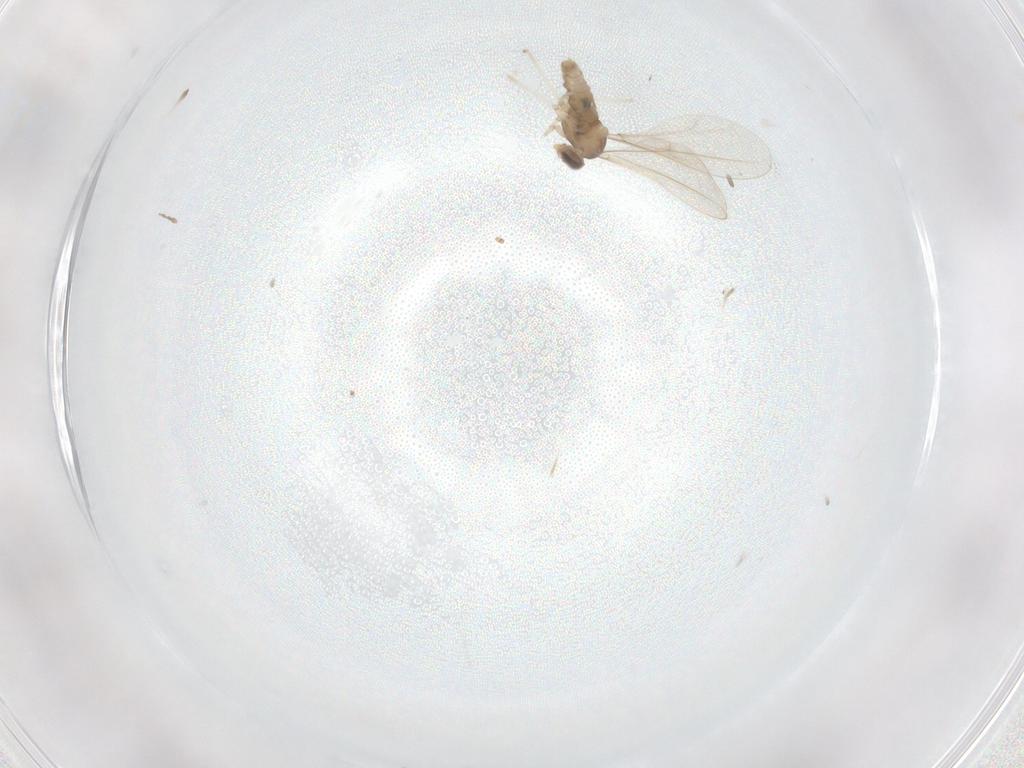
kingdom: Animalia
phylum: Arthropoda
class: Insecta
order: Diptera
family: Cecidomyiidae
